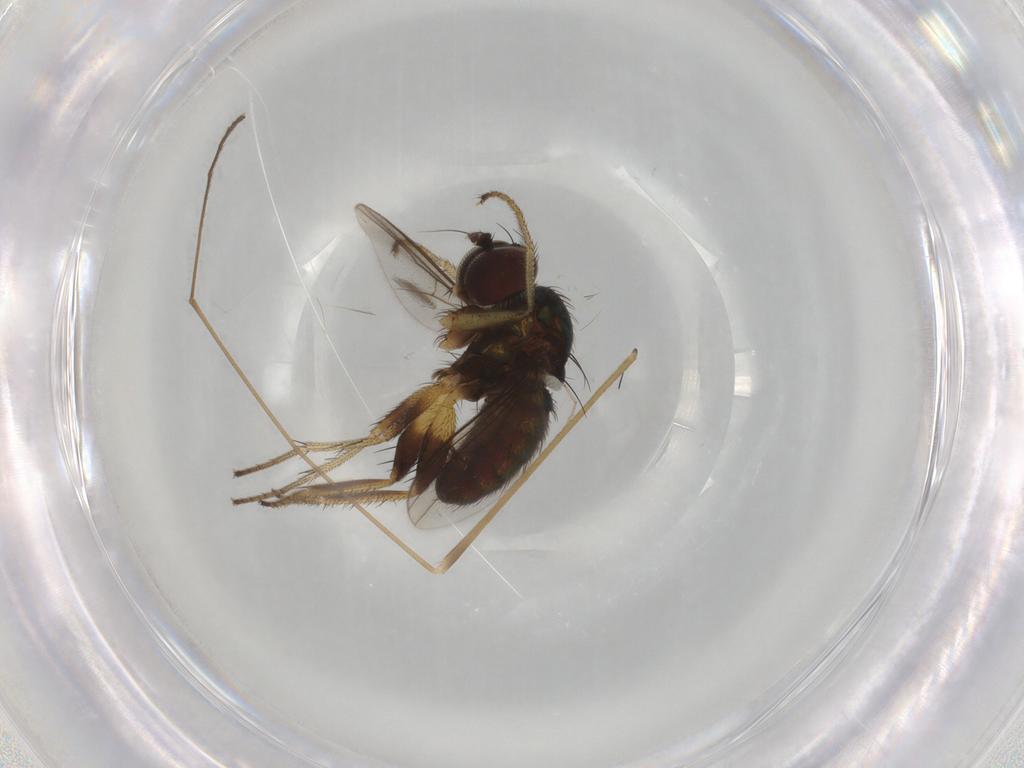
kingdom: Animalia
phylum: Arthropoda
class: Insecta
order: Diptera
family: Dolichopodidae
